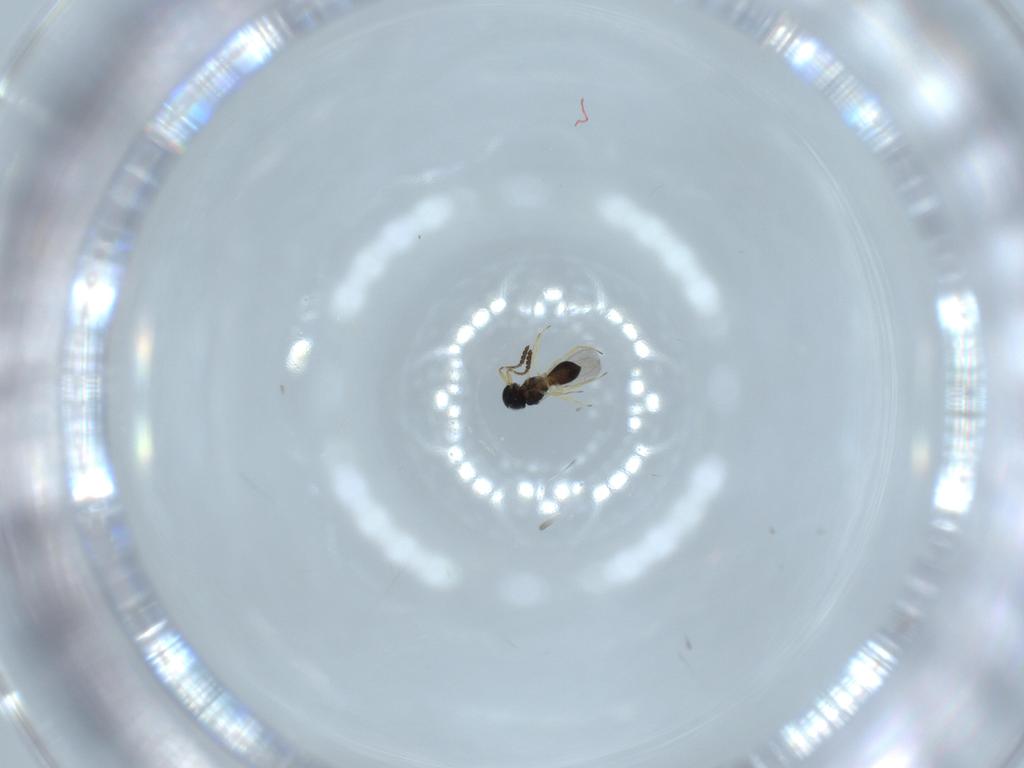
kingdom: Animalia
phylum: Arthropoda
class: Insecta
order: Hymenoptera
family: Scelionidae
